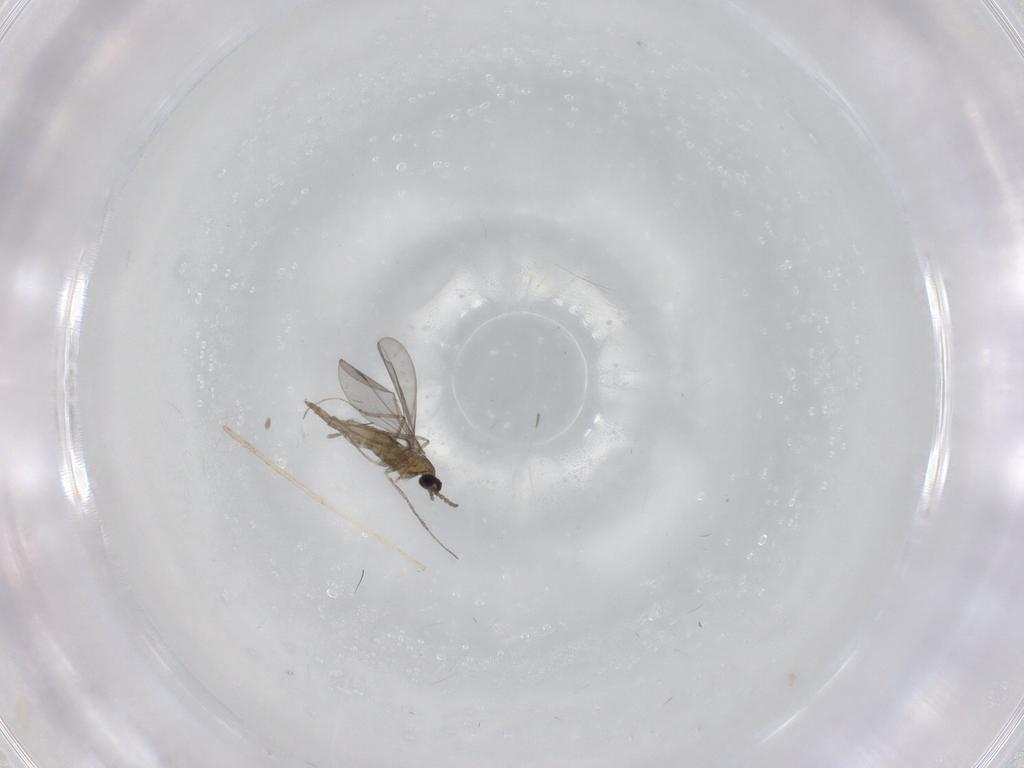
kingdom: Animalia
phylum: Arthropoda
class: Insecta
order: Diptera
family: Cecidomyiidae
